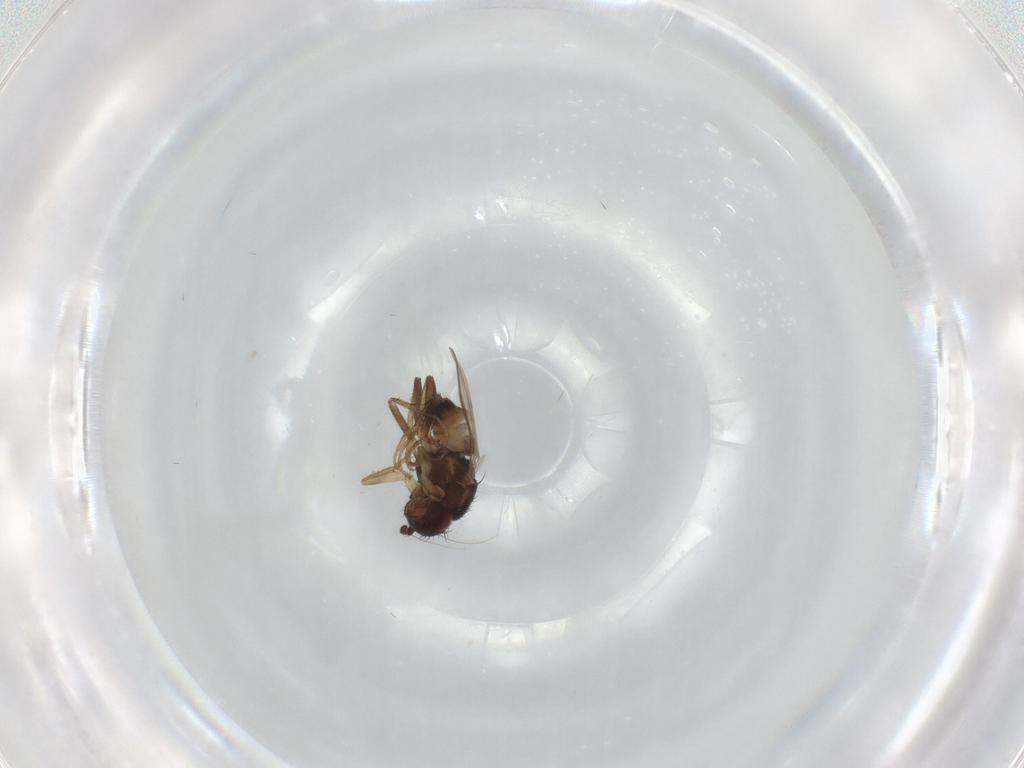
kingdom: Animalia
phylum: Arthropoda
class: Insecta
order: Diptera
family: Sphaeroceridae
